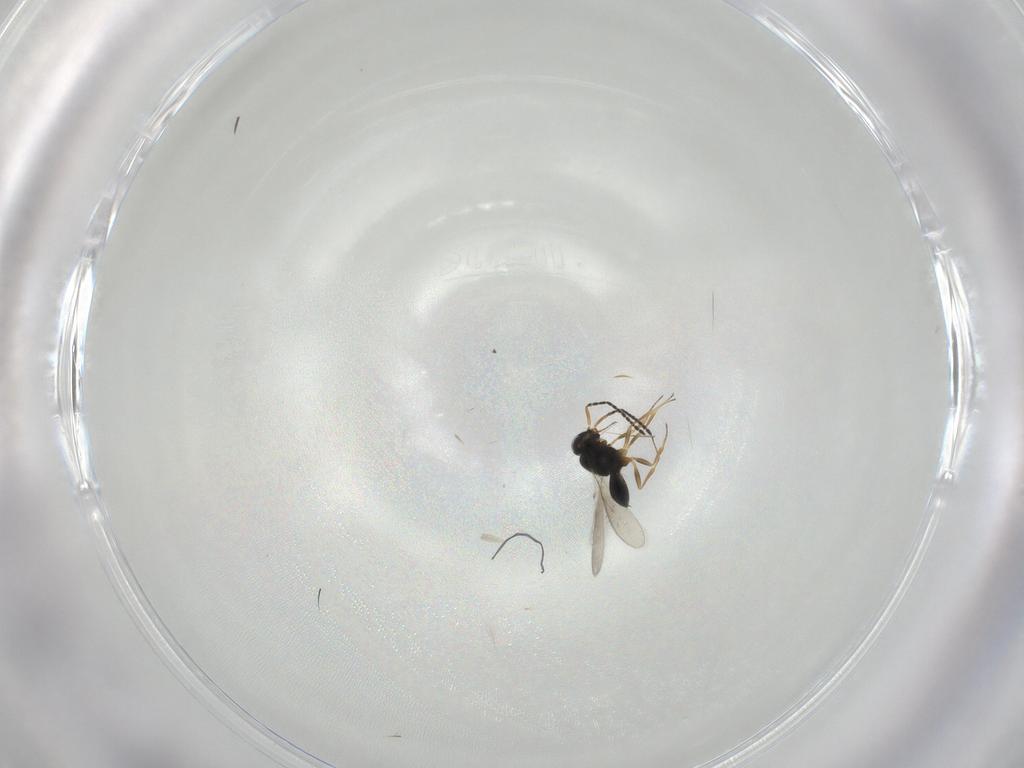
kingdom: Animalia
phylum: Arthropoda
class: Insecta
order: Hymenoptera
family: Scelionidae
